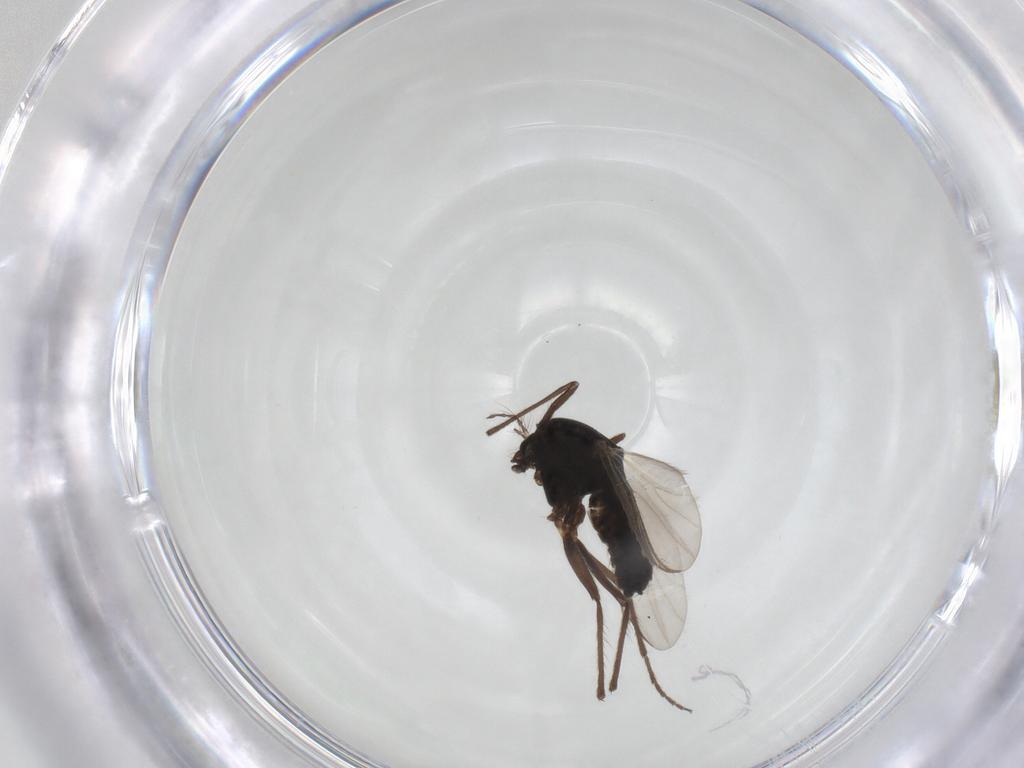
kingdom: Animalia
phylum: Arthropoda
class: Insecta
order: Diptera
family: Chironomidae
